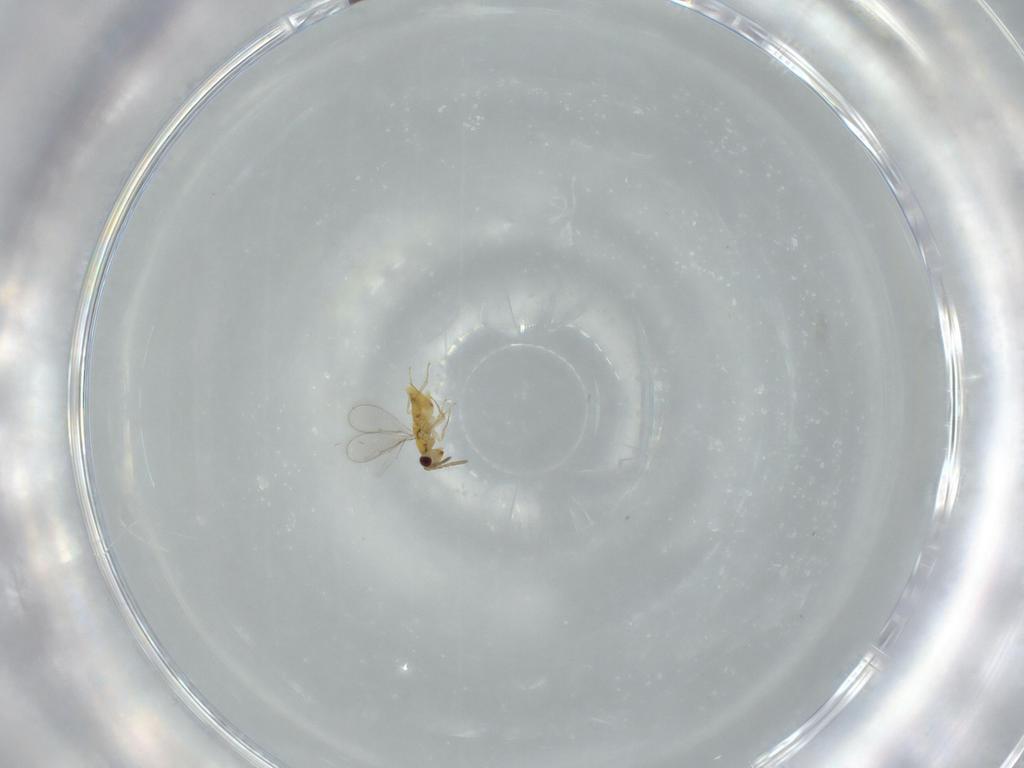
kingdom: Animalia
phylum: Arthropoda
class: Insecta
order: Hymenoptera
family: Aphelinidae
